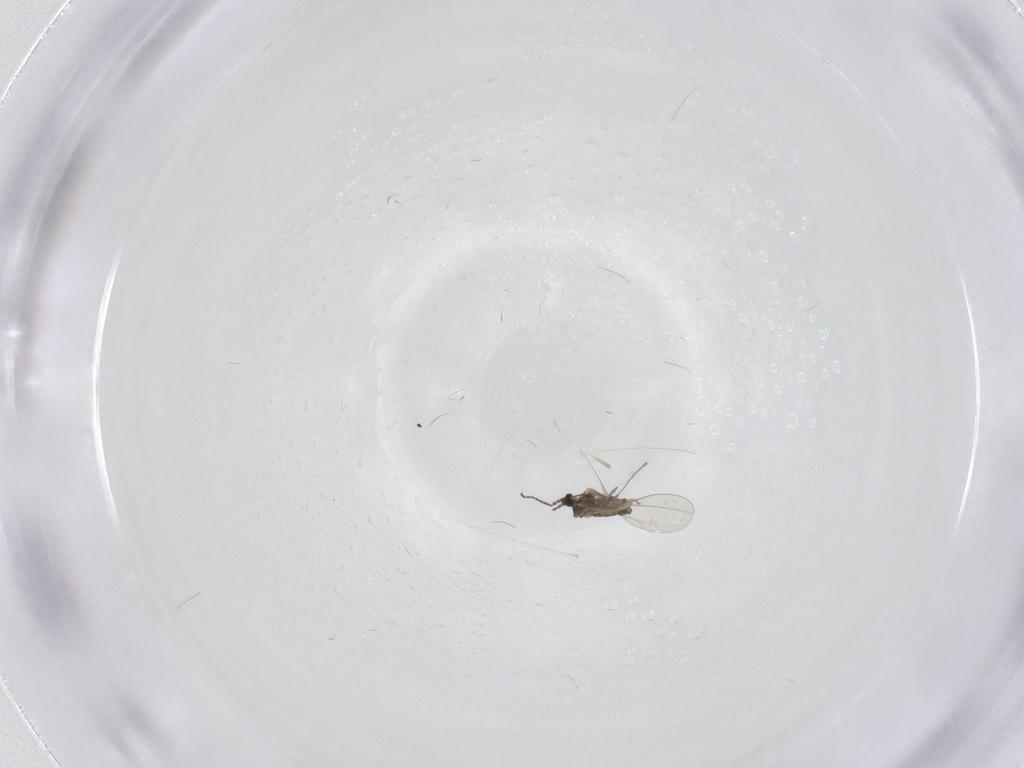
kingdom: Animalia
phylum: Arthropoda
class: Insecta
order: Diptera
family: Cecidomyiidae
